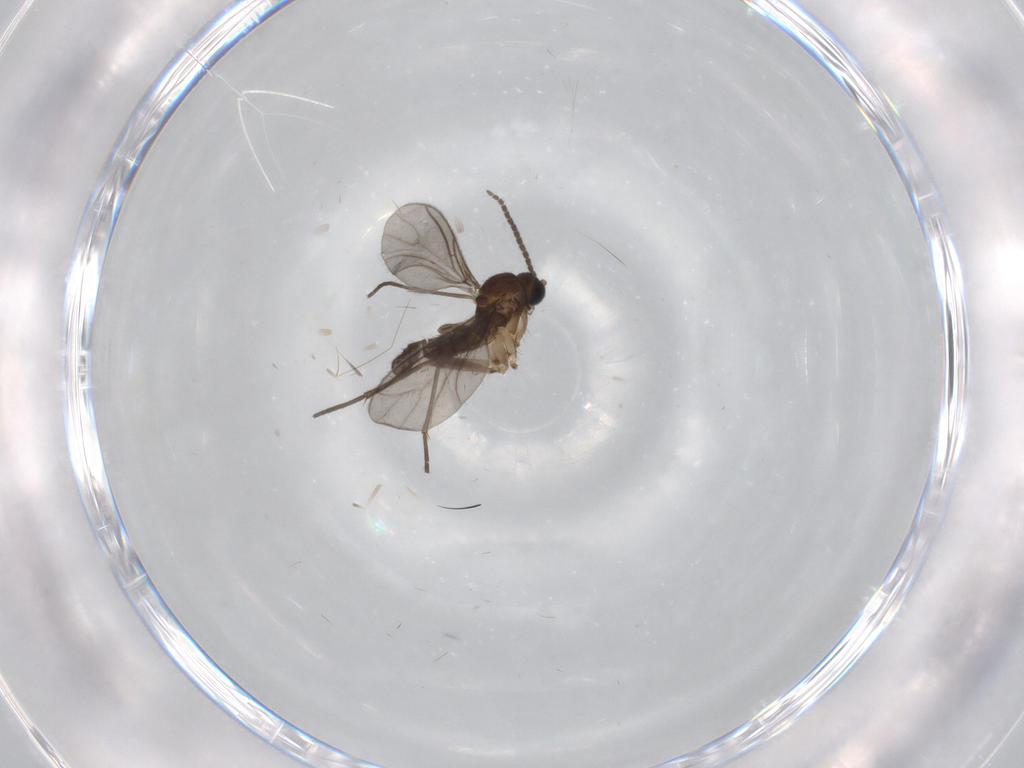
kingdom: Animalia
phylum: Arthropoda
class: Insecta
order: Diptera
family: Sciaridae
